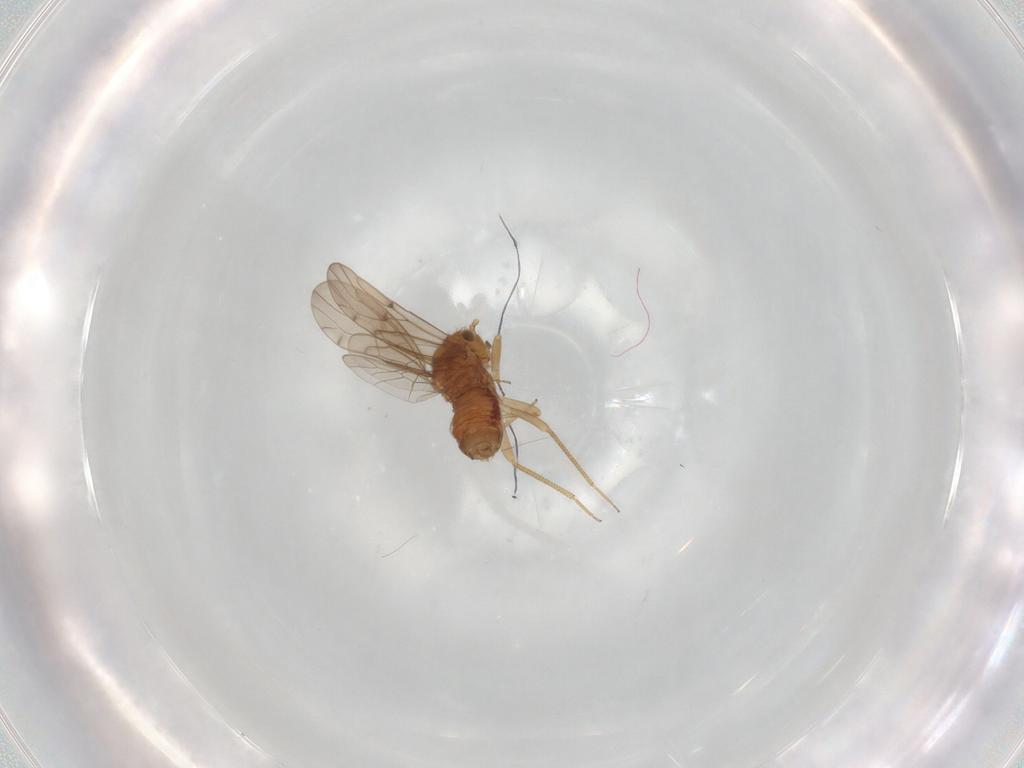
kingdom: Animalia
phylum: Arthropoda
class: Insecta
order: Psocodea
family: Ectopsocidae
